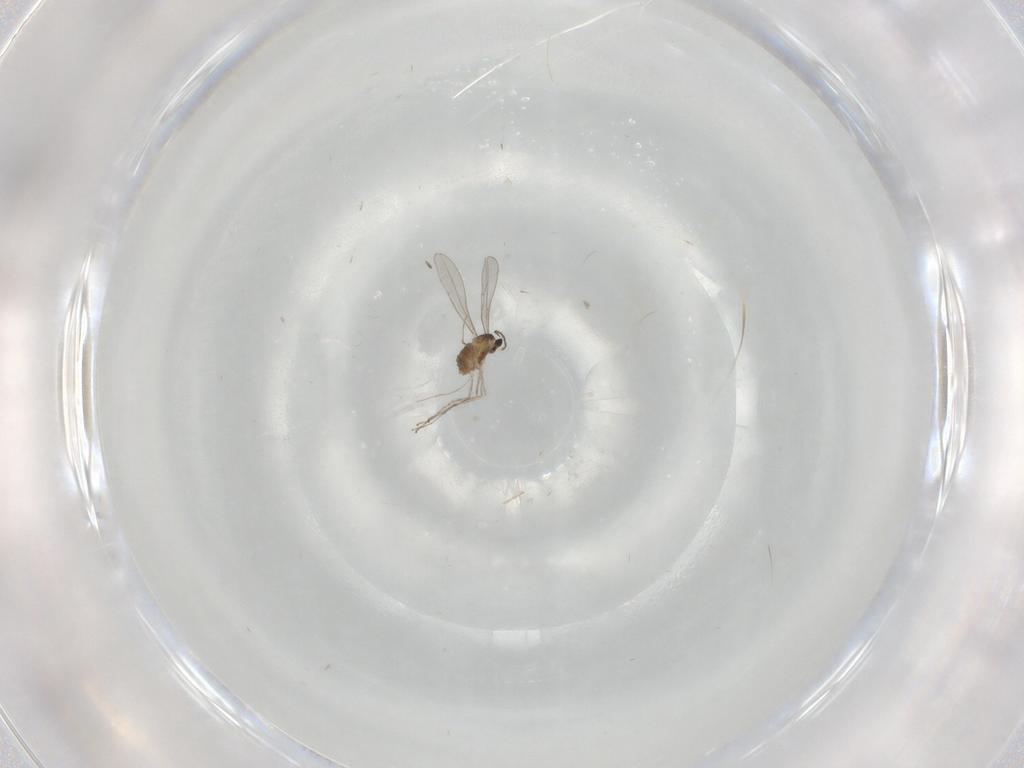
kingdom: Animalia
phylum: Arthropoda
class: Insecta
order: Diptera
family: Cecidomyiidae
